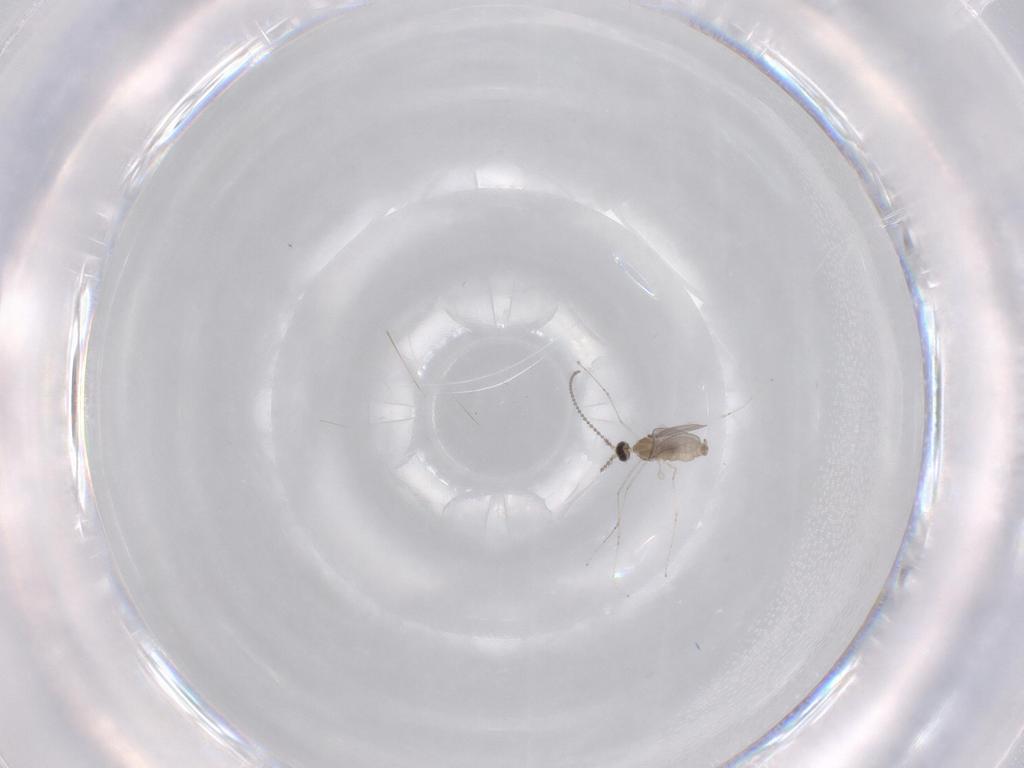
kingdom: Animalia
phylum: Arthropoda
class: Insecta
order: Diptera
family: Cecidomyiidae
